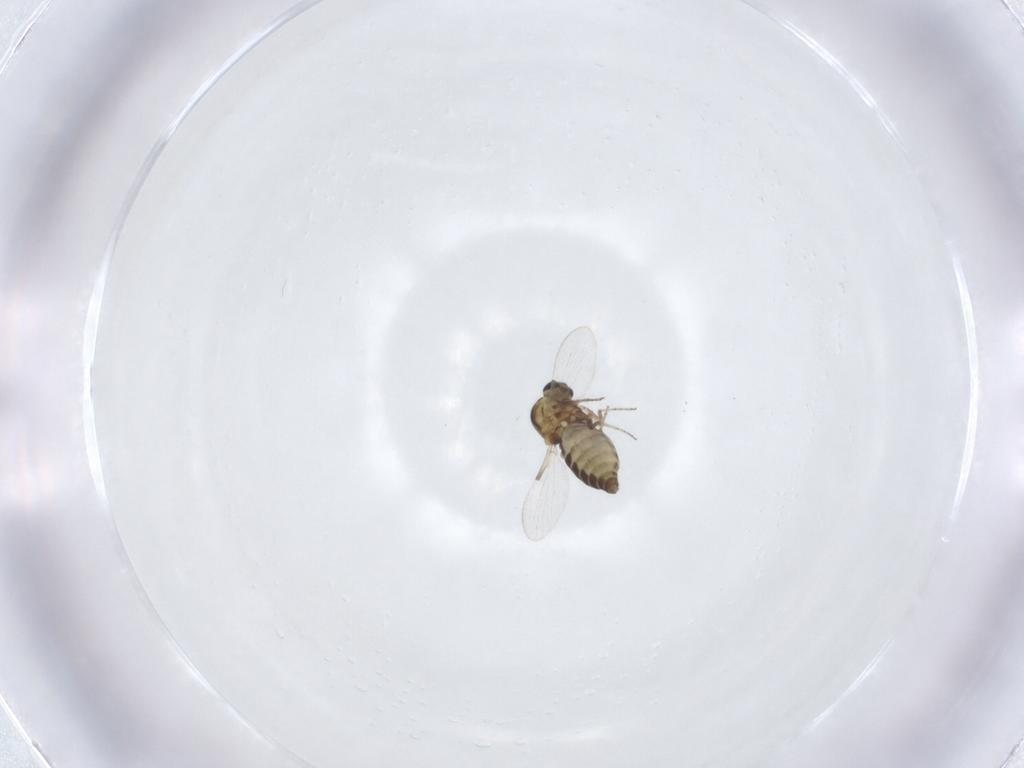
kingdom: Animalia
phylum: Arthropoda
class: Insecta
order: Diptera
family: Ceratopogonidae
